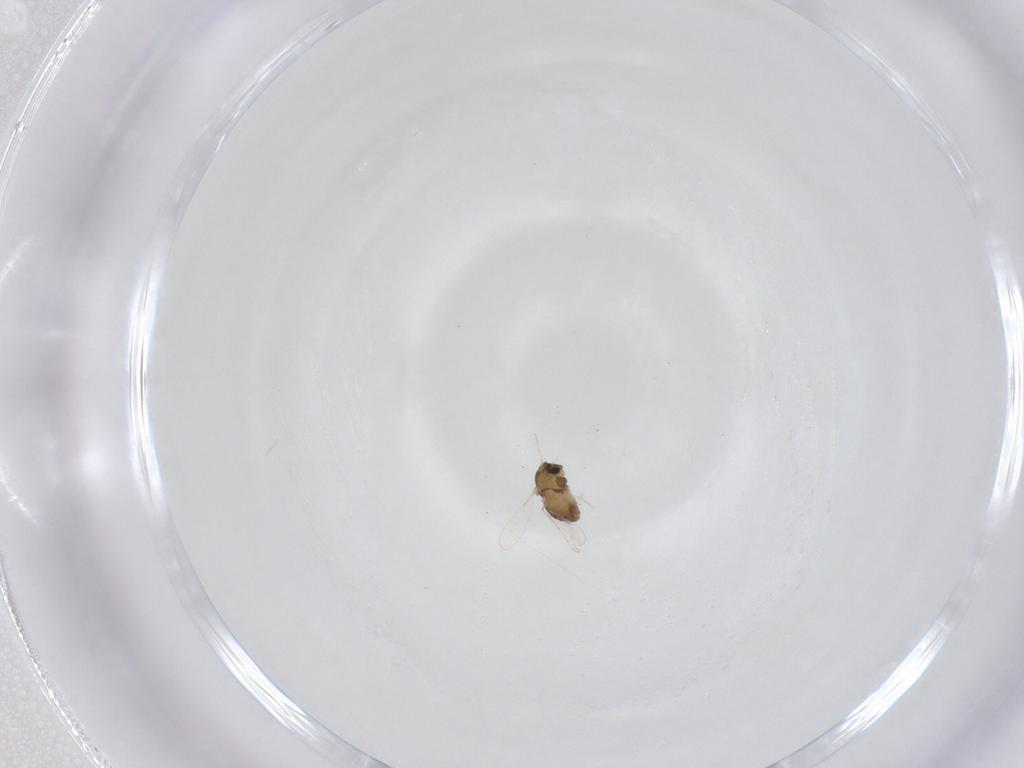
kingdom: Animalia
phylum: Arthropoda
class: Insecta
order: Diptera
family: Chironomidae
